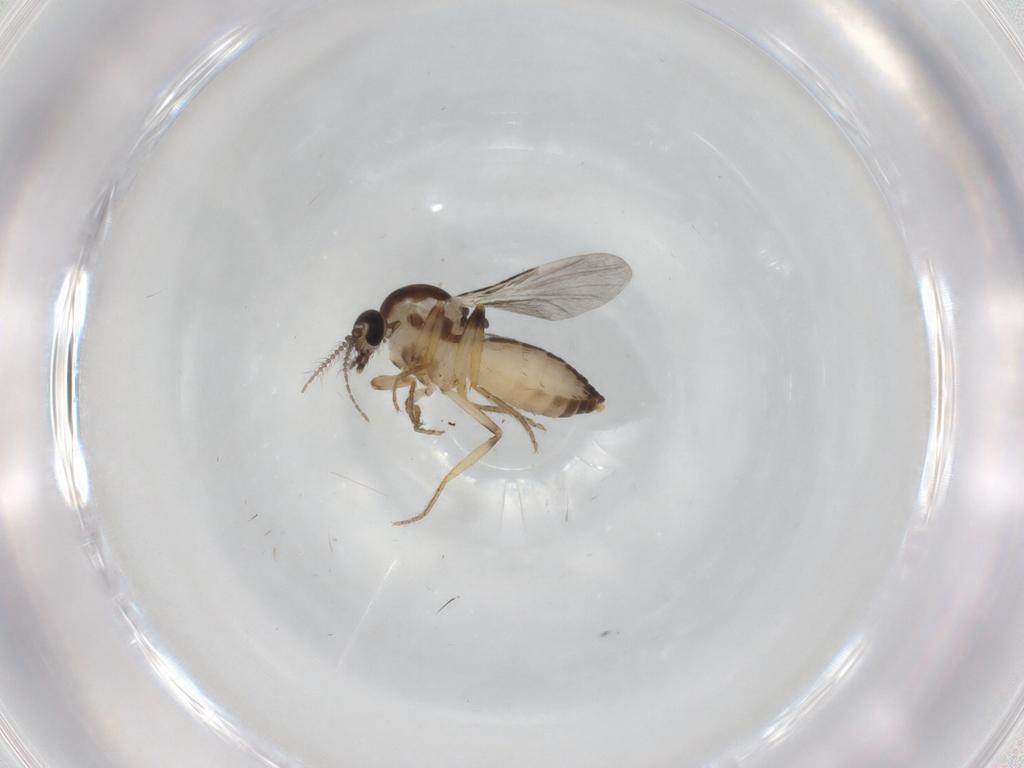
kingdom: Animalia
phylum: Arthropoda
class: Insecta
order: Diptera
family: Ceratopogonidae
